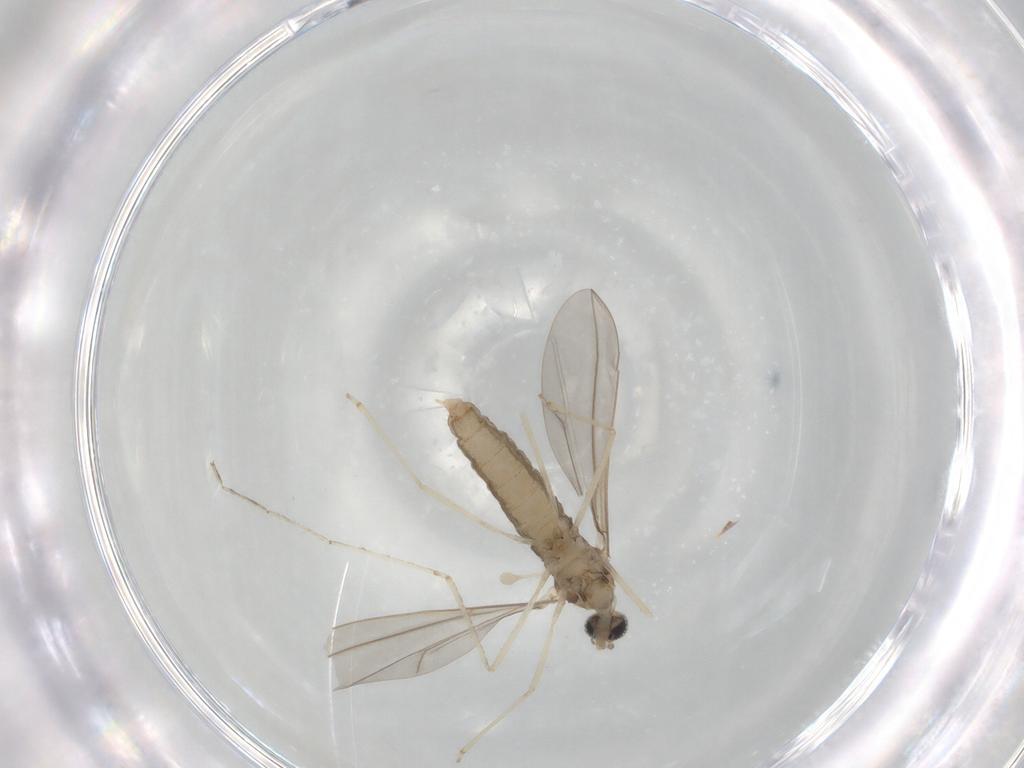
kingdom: Animalia
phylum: Arthropoda
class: Insecta
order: Diptera
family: Cecidomyiidae
